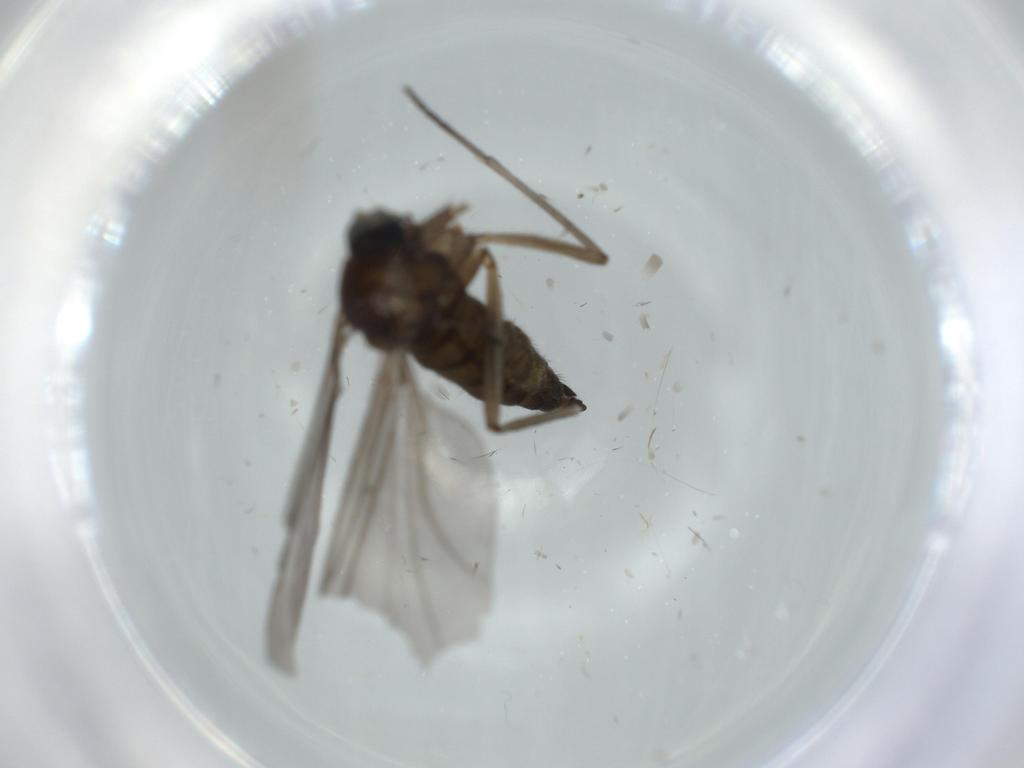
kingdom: Animalia
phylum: Arthropoda
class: Insecta
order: Diptera
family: Sciaridae
